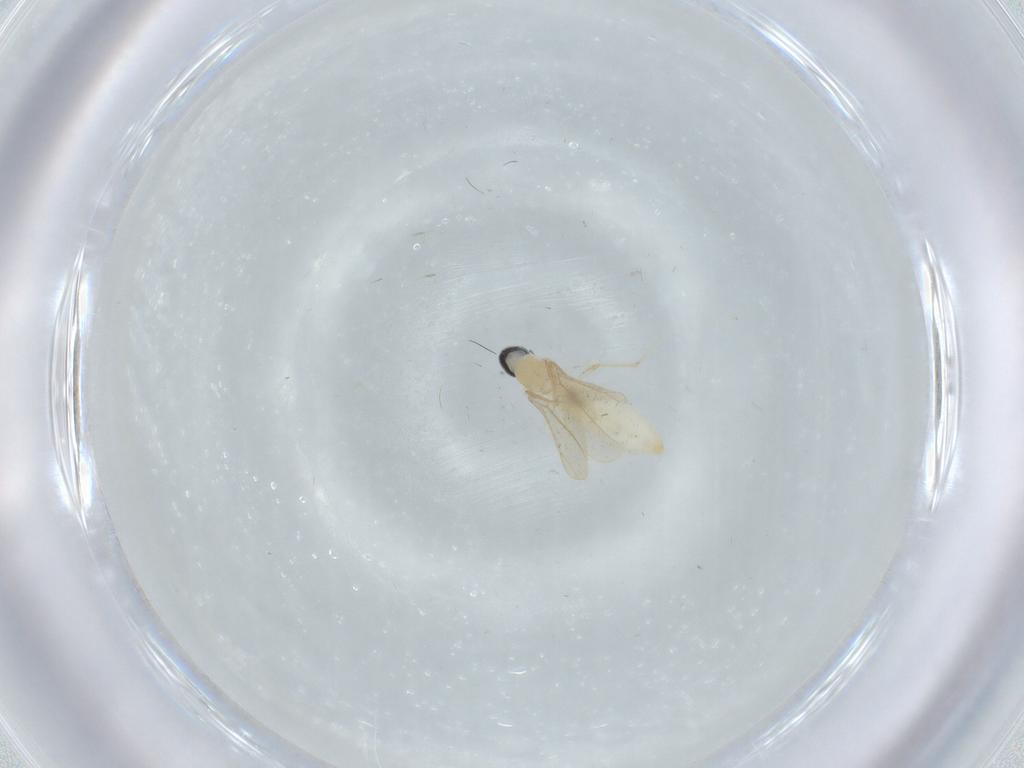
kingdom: Animalia
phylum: Arthropoda
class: Insecta
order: Diptera
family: Cecidomyiidae
